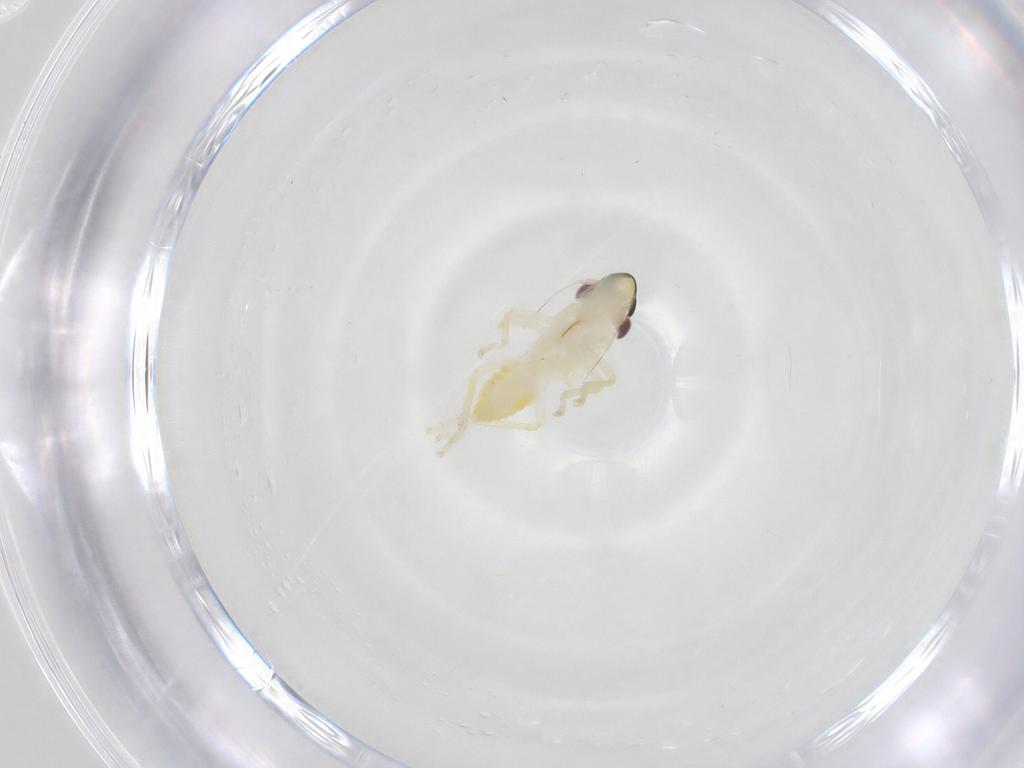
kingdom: Animalia
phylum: Arthropoda
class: Insecta
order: Hemiptera
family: Cicadellidae
